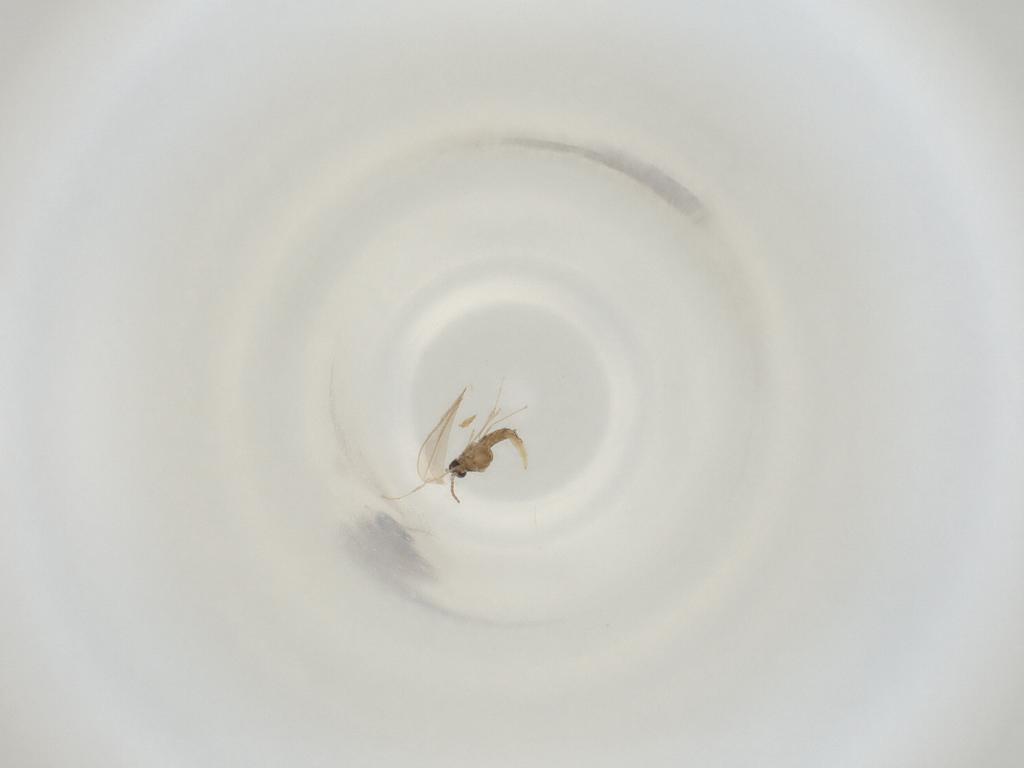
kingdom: Animalia
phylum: Arthropoda
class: Insecta
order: Diptera
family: Cecidomyiidae
